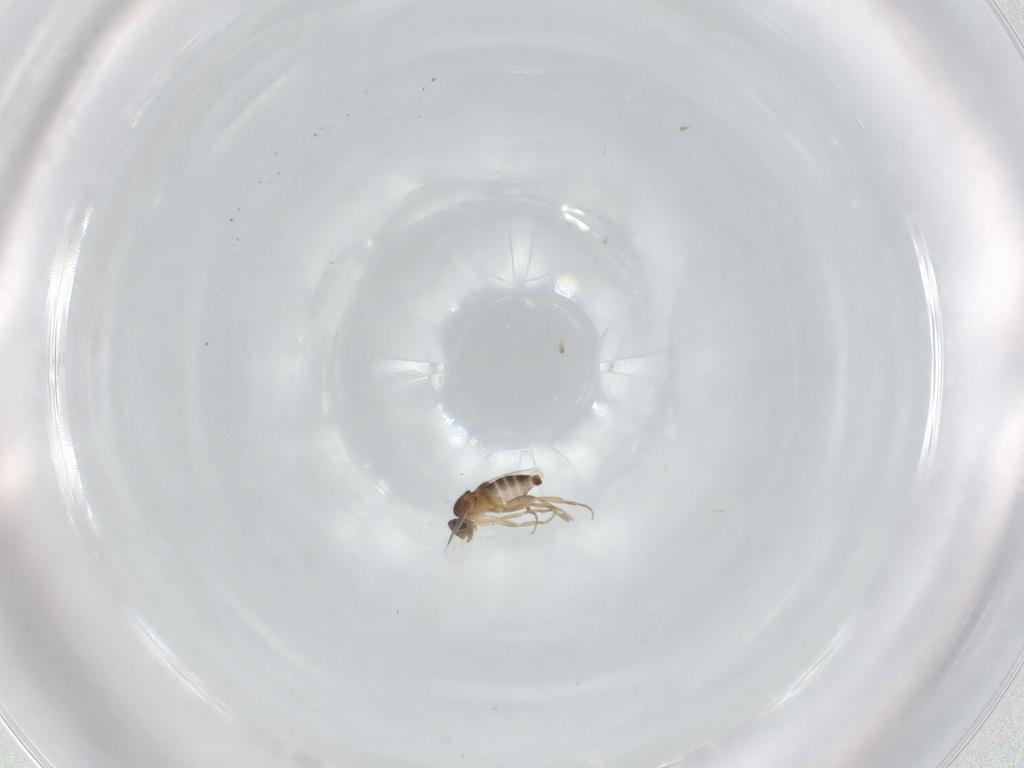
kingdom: Animalia
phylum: Arthropoda
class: Insecta
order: Diptera
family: Phoridae
